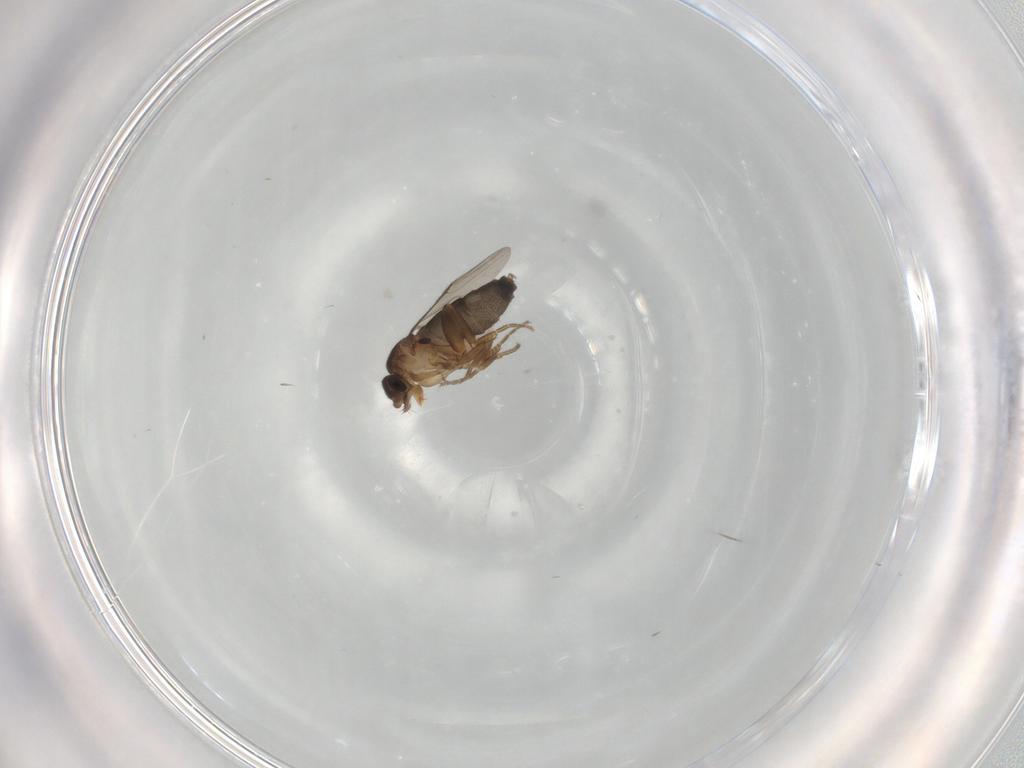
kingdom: Animalia
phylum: Arthropoda
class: Insecta
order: Diptera
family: Phoridae
